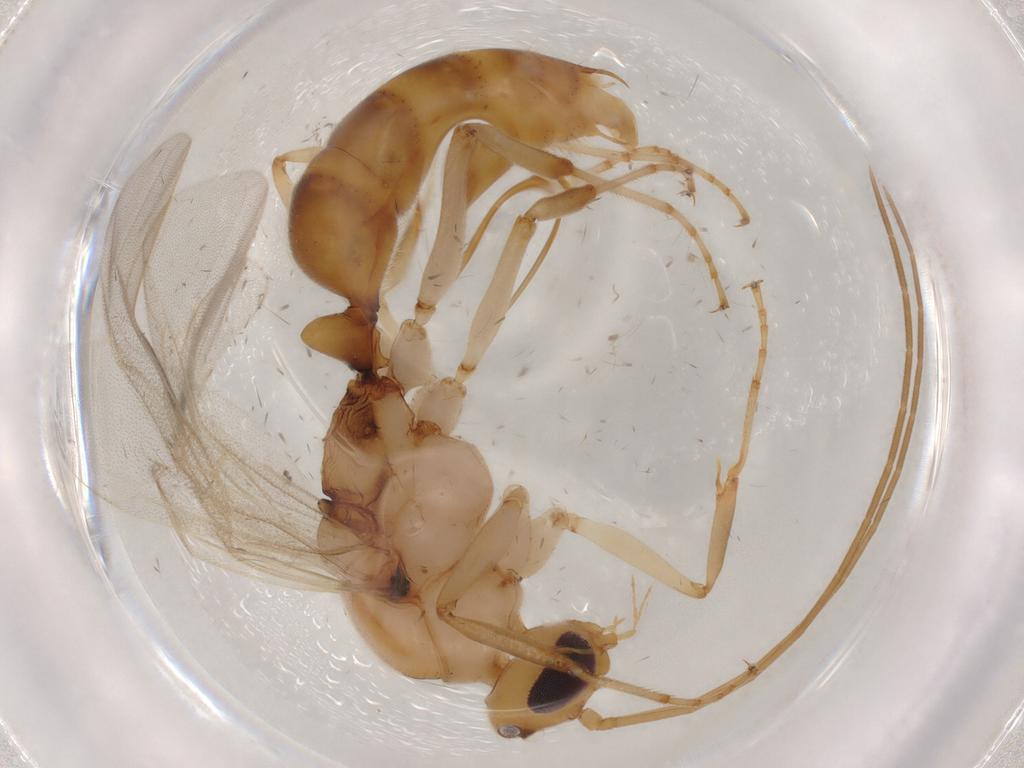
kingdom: Animalia
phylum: Arthropoda
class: Insecta
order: Hymenoptera
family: Formicidae
